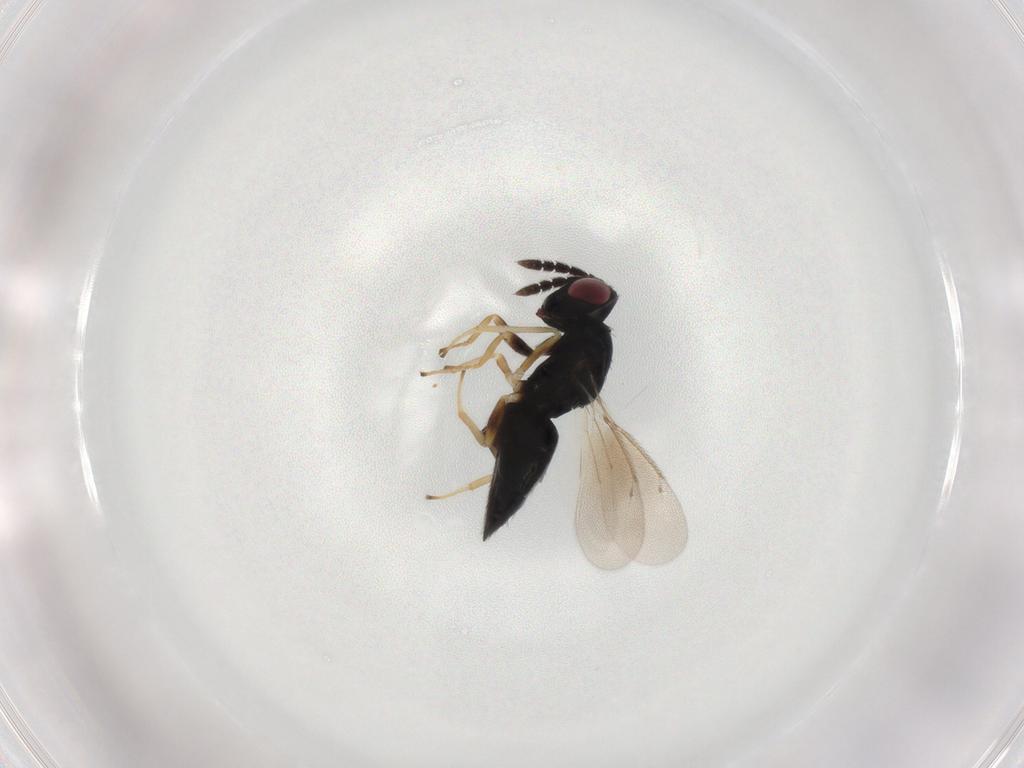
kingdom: Animalia
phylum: Arthropoda
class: Insecta
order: Hymenoptera
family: Eulophidae
